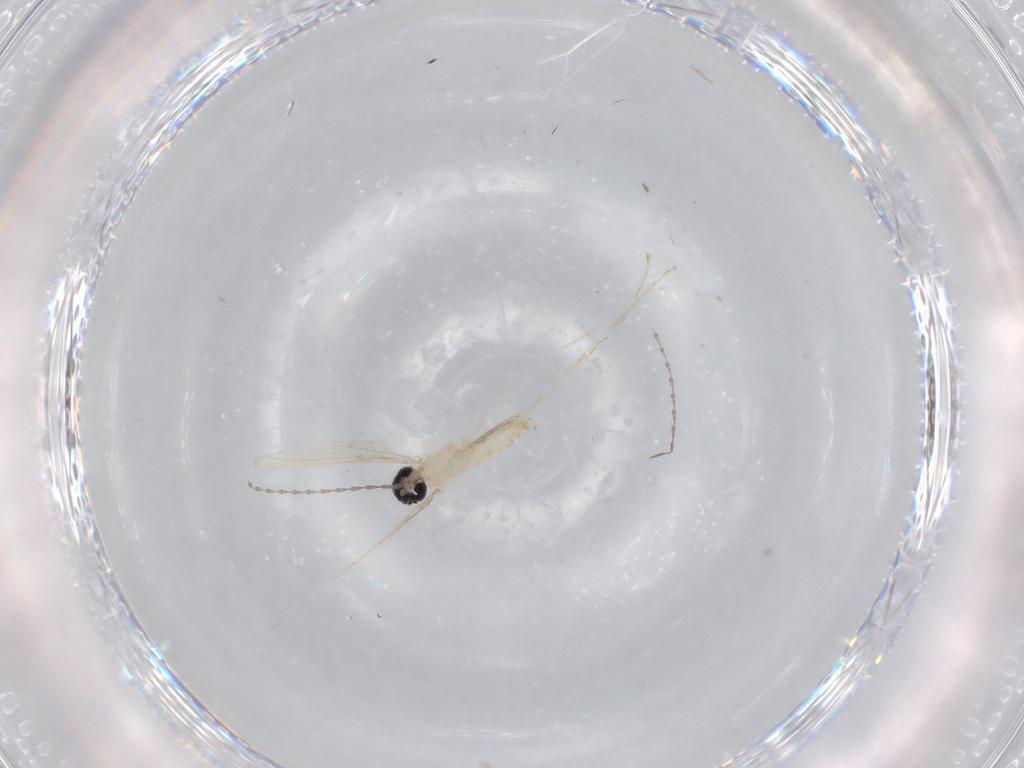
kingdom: Animalia
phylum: Arthropoda
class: Insecta
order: Diptera
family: Cecidomyiidae
